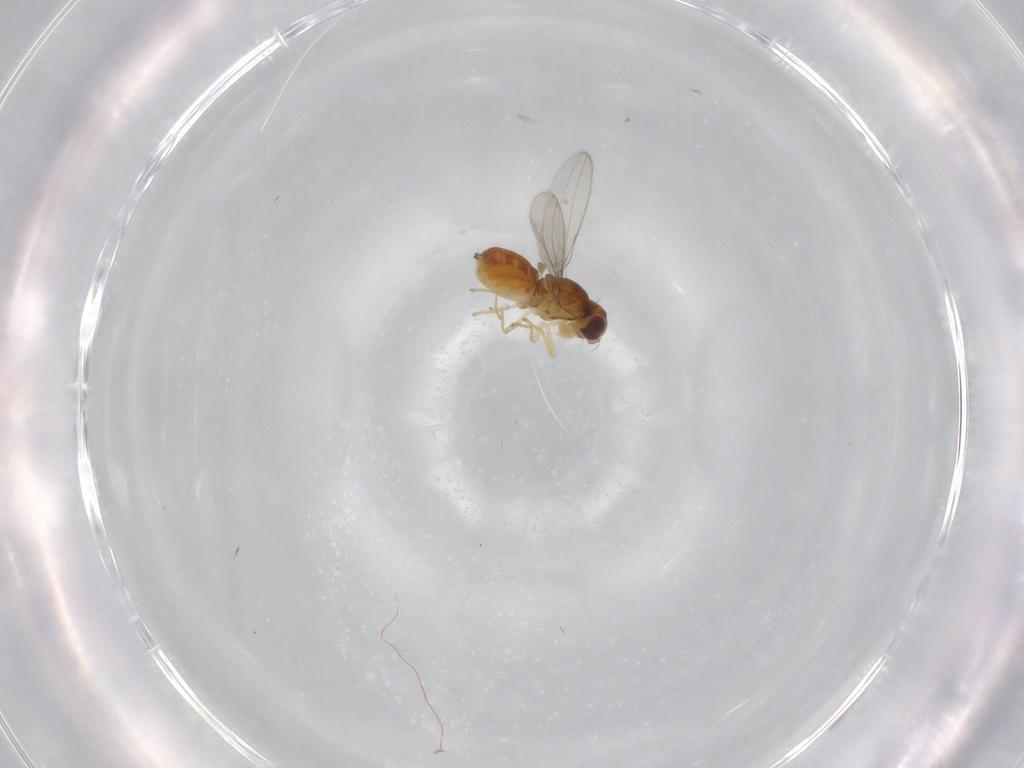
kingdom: Animalia
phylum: Arthropoda
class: Insecta
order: Diptera
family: Asteiidae
